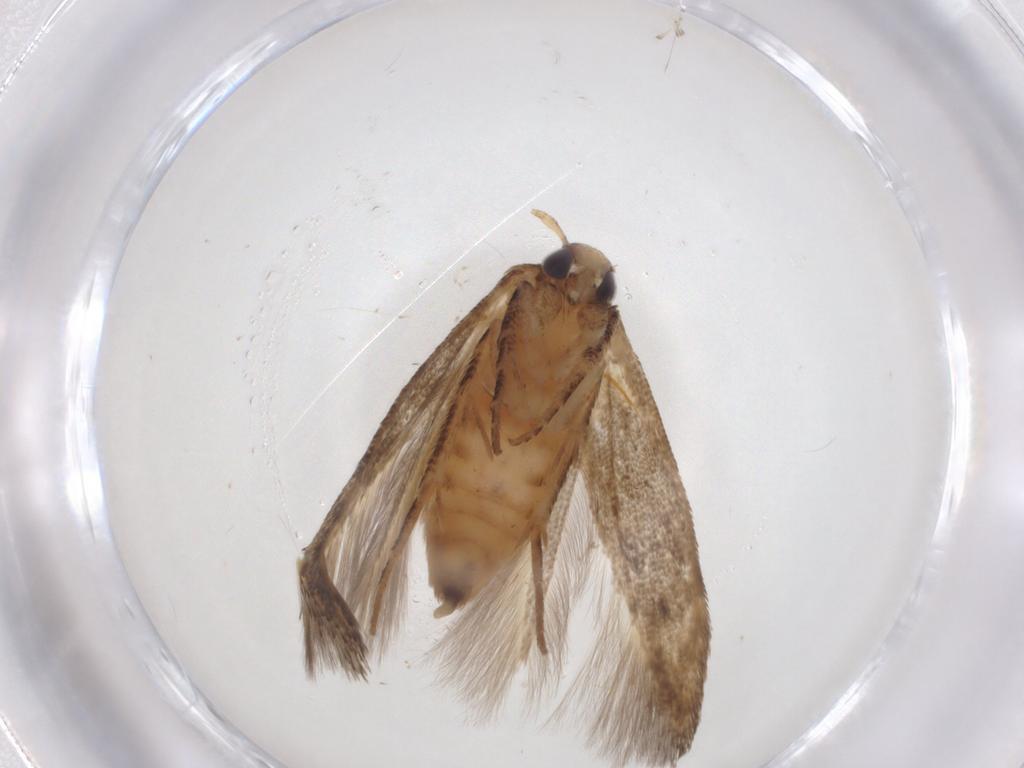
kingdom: Animalia
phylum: Arthropoda
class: Insecta
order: Lepidoptera
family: Cosmopterigidae
